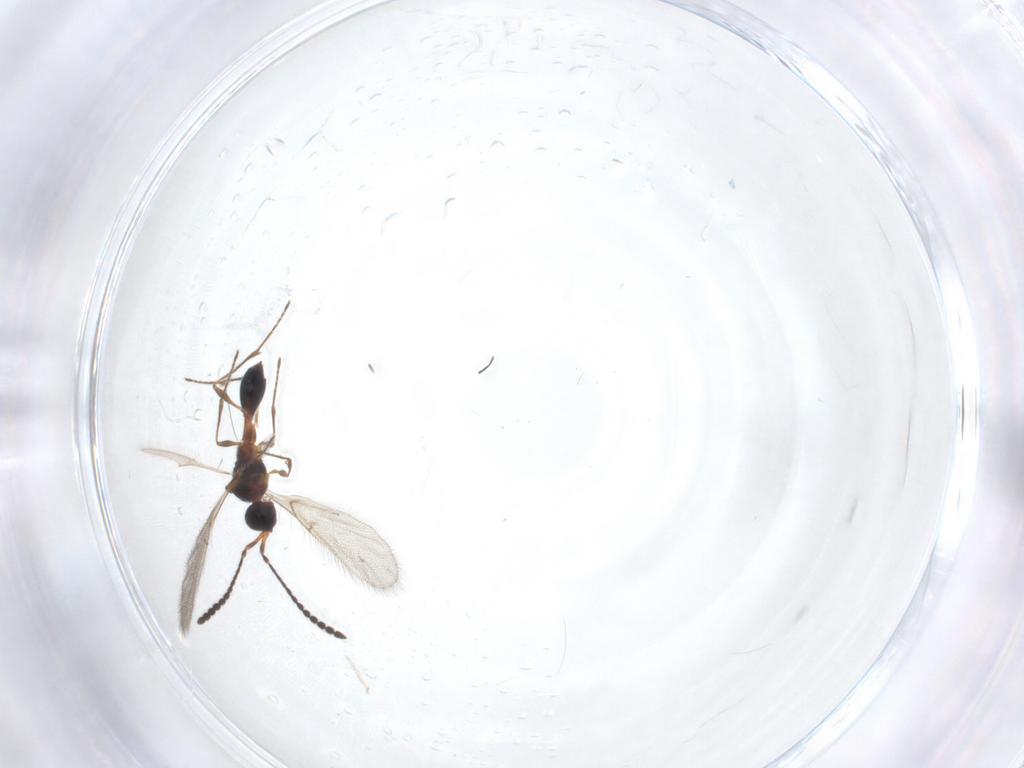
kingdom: Animalia
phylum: Arthropoda
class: Insecta
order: Hymenoptera
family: Diapriidae
